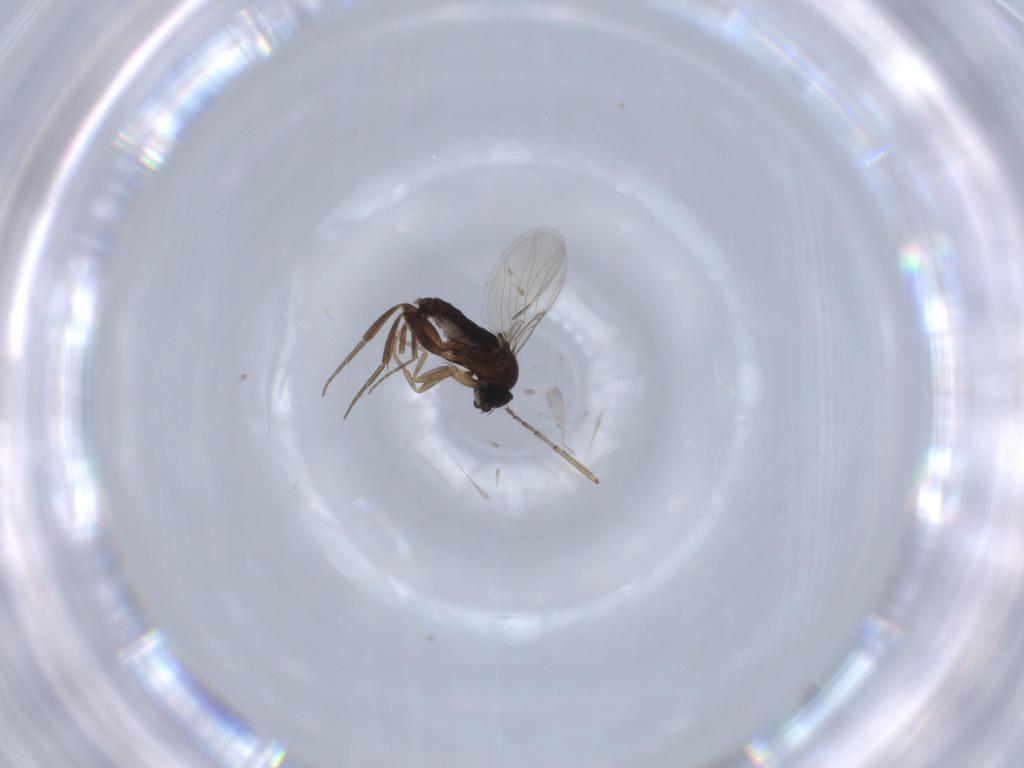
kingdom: Animalia
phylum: Arthropoda
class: Insecta
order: Diptera
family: Phoridae
